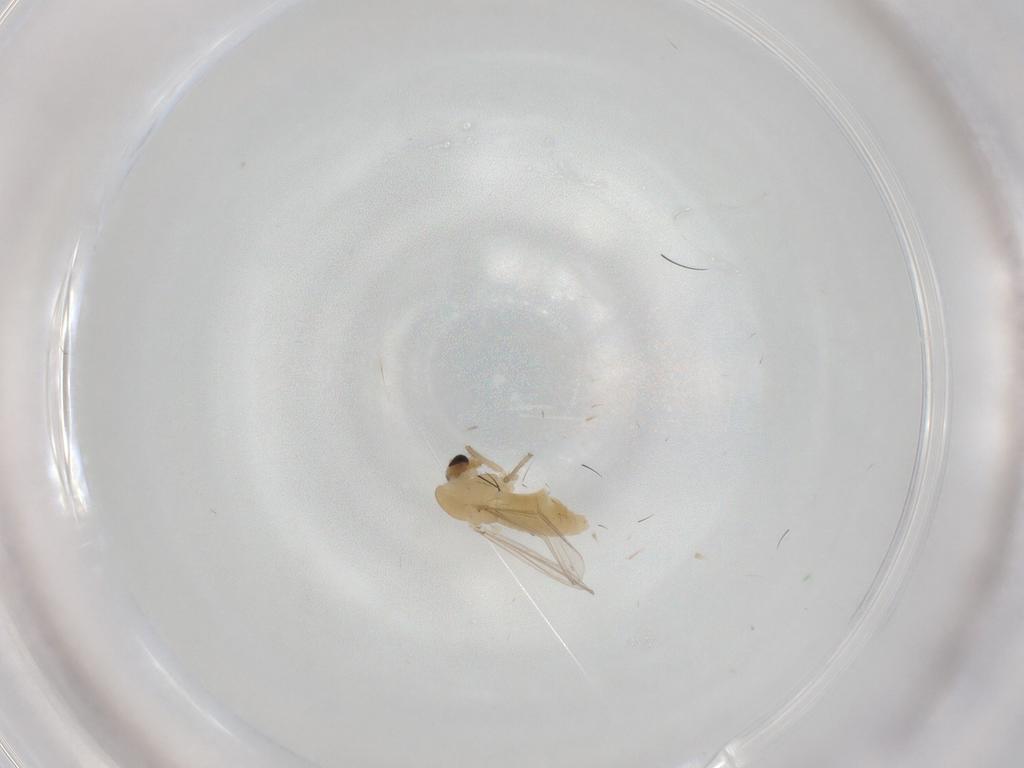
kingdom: Animalia
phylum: Arthropoda
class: Insecta
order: Diptera
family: Chironomidae
